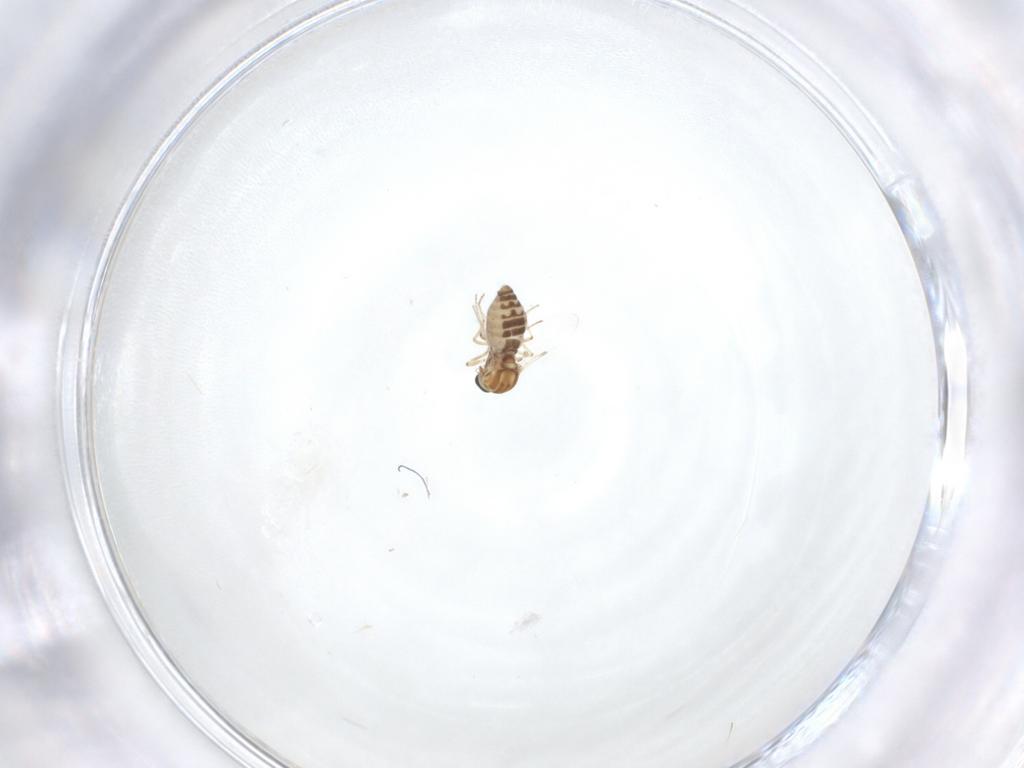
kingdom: Animalia
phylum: Arthropoda
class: Insecta
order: Diptera
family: Ceratopogonidae
